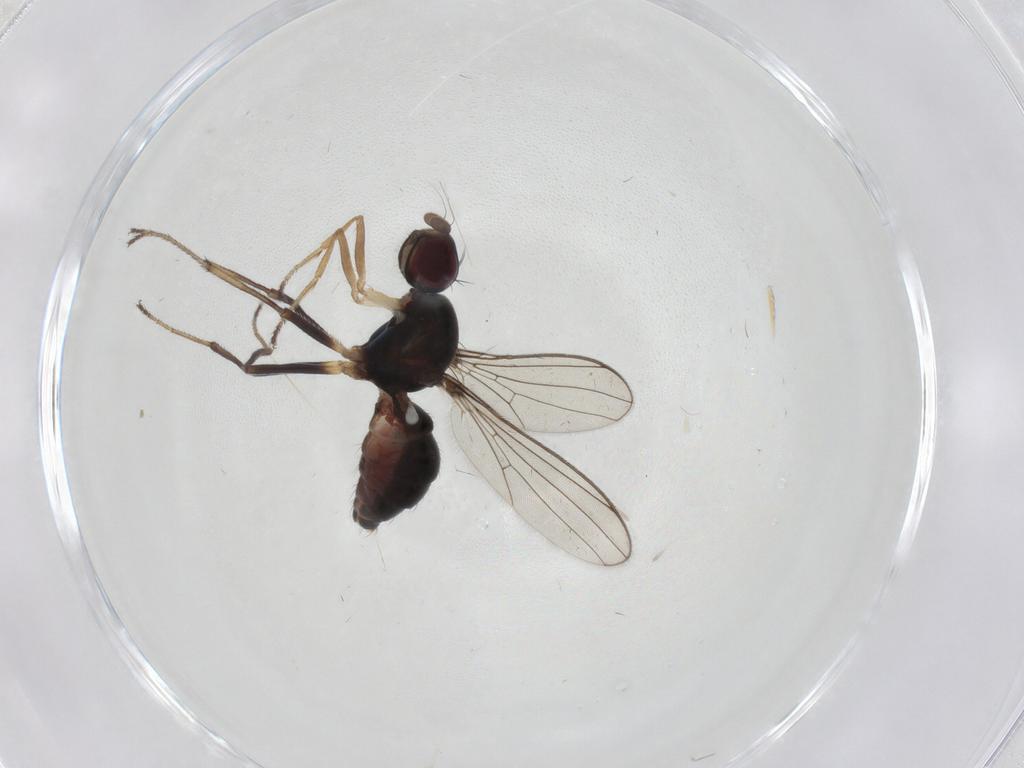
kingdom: Animalia
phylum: Arthropoda
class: Insecta
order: Diptera
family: Sepsidae
